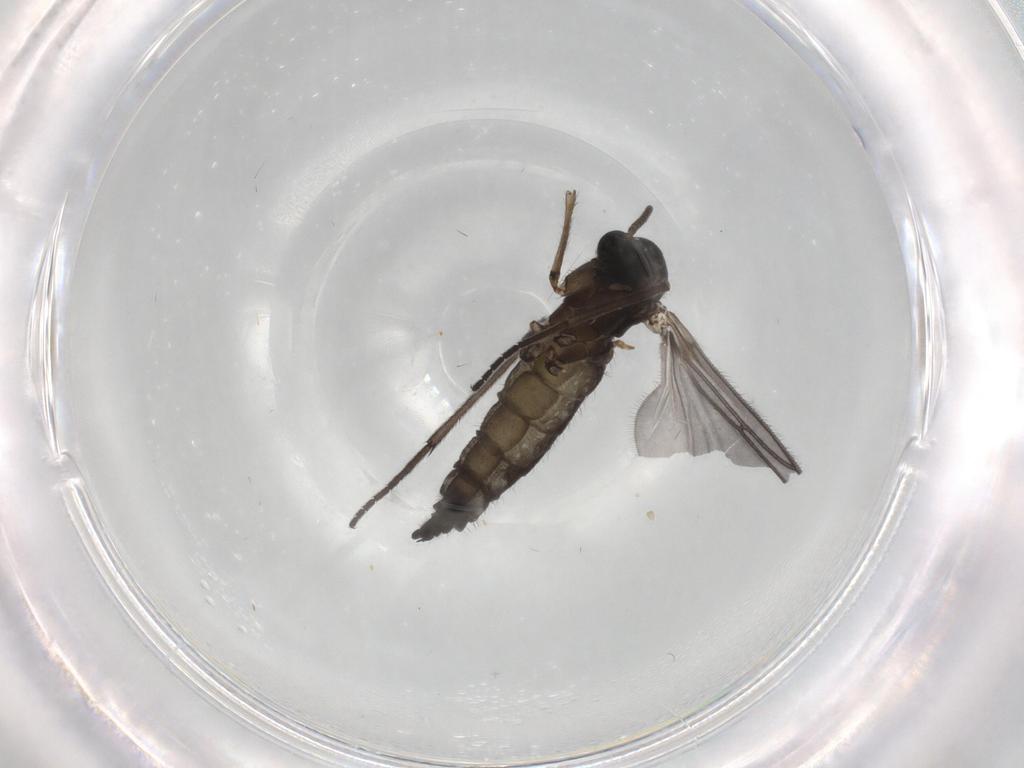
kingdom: Animalia
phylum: Arthropoda
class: Insecta
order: Diptera
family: Sciaridae
